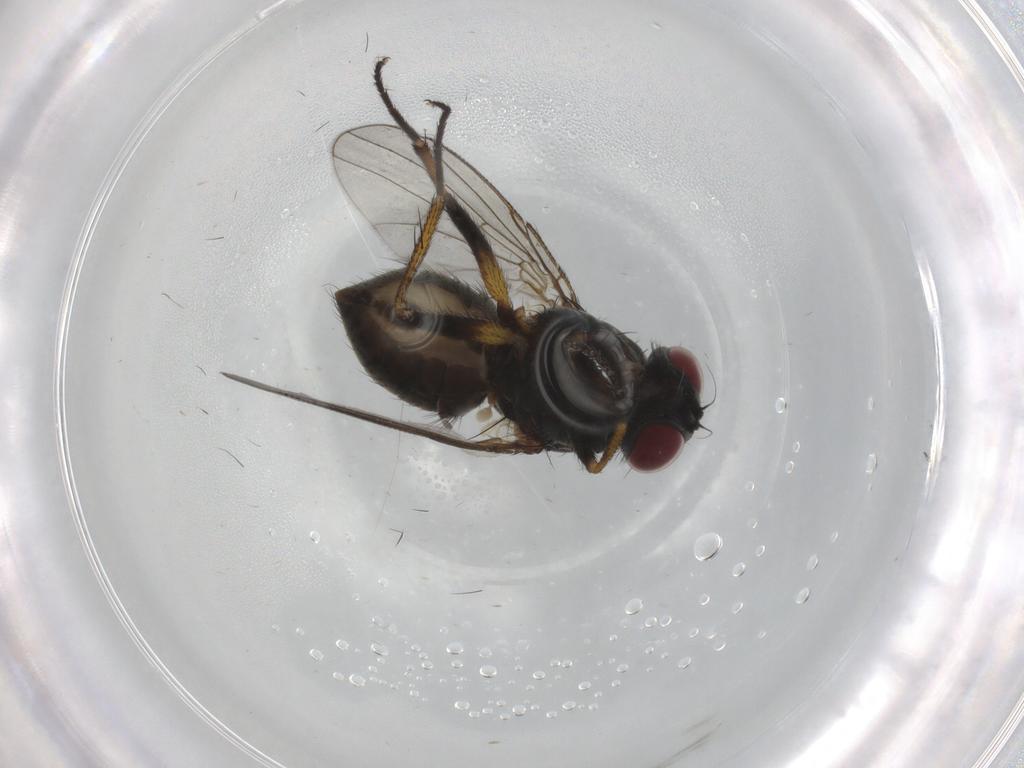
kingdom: Animalia
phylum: Arthropoda
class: Insecta
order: Diptera
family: Muscidae
